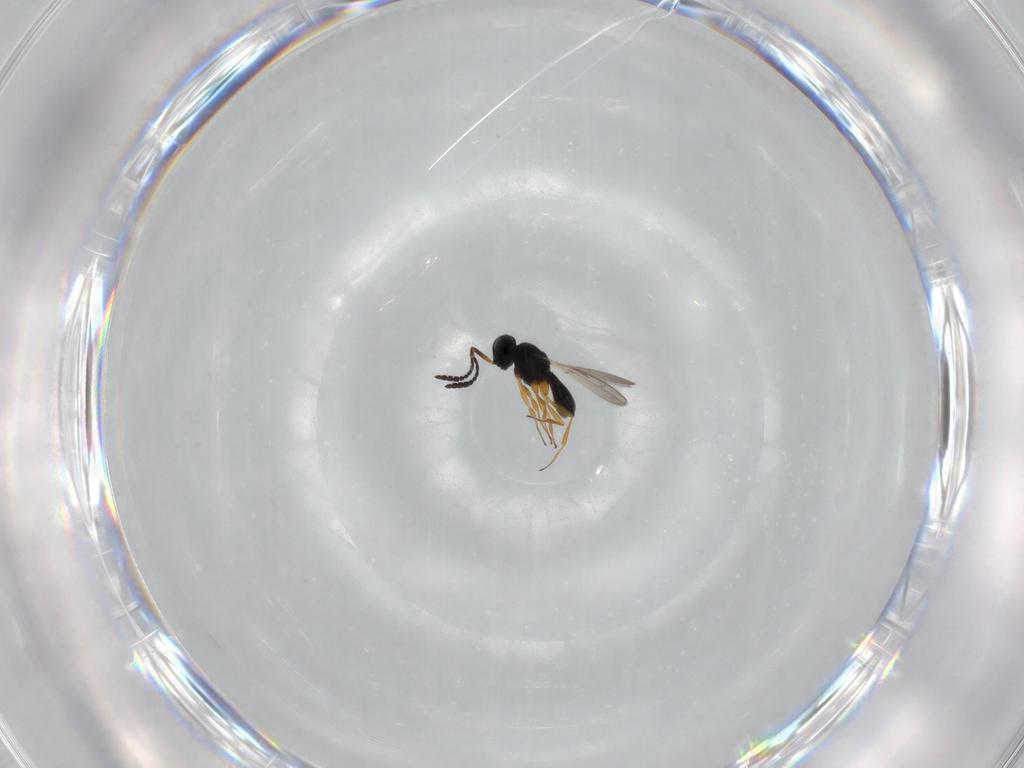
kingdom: Animalia
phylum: Arthropoda
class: Insecta
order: Hymenoptera
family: Scelionidae
